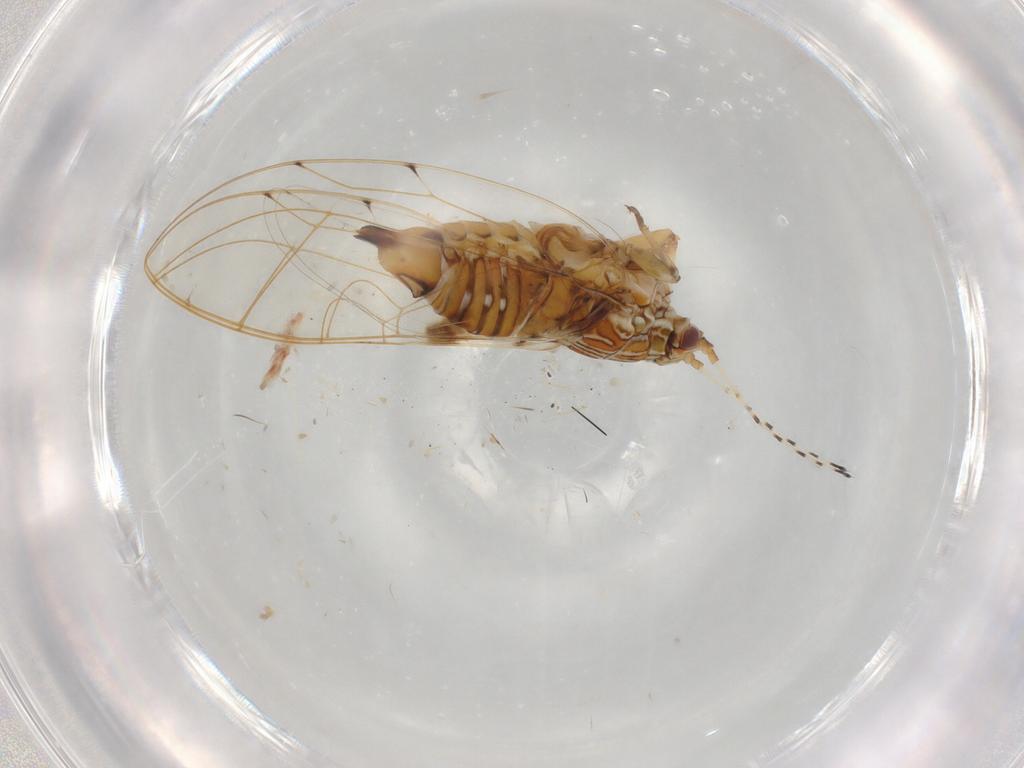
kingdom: Animalia
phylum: Arthropoda
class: Insecta
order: Hemiptera
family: Carsidaridae
